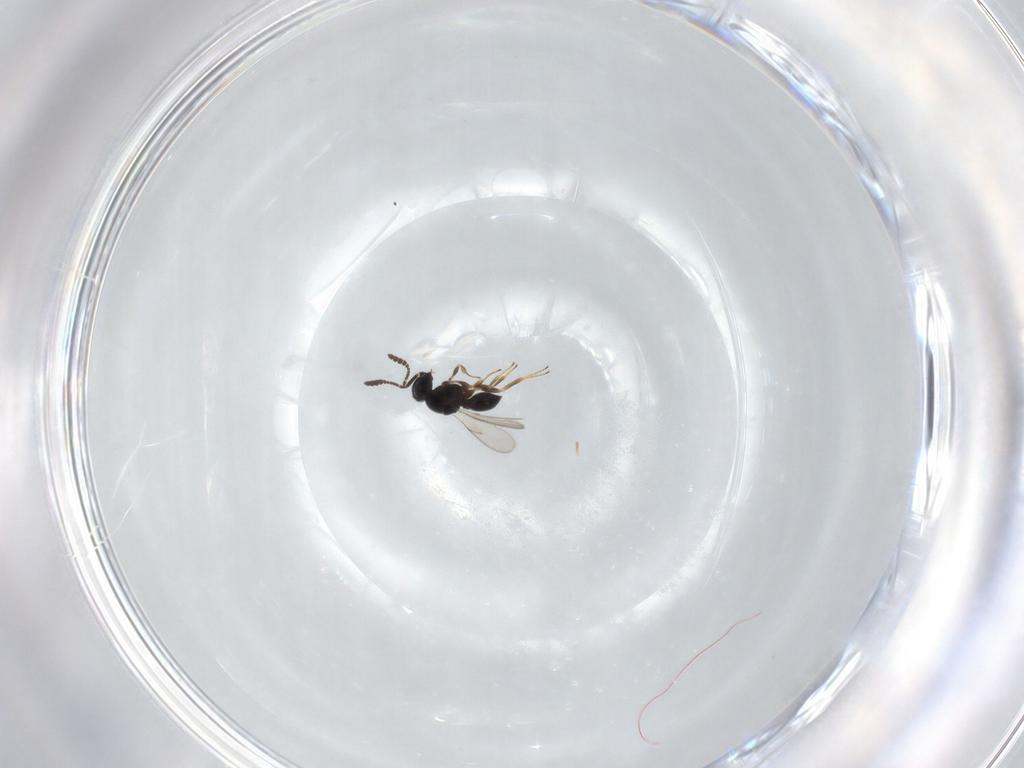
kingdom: Animalia
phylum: Arthropoda
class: Insecta
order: Hymenoptera
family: Scelionidae
